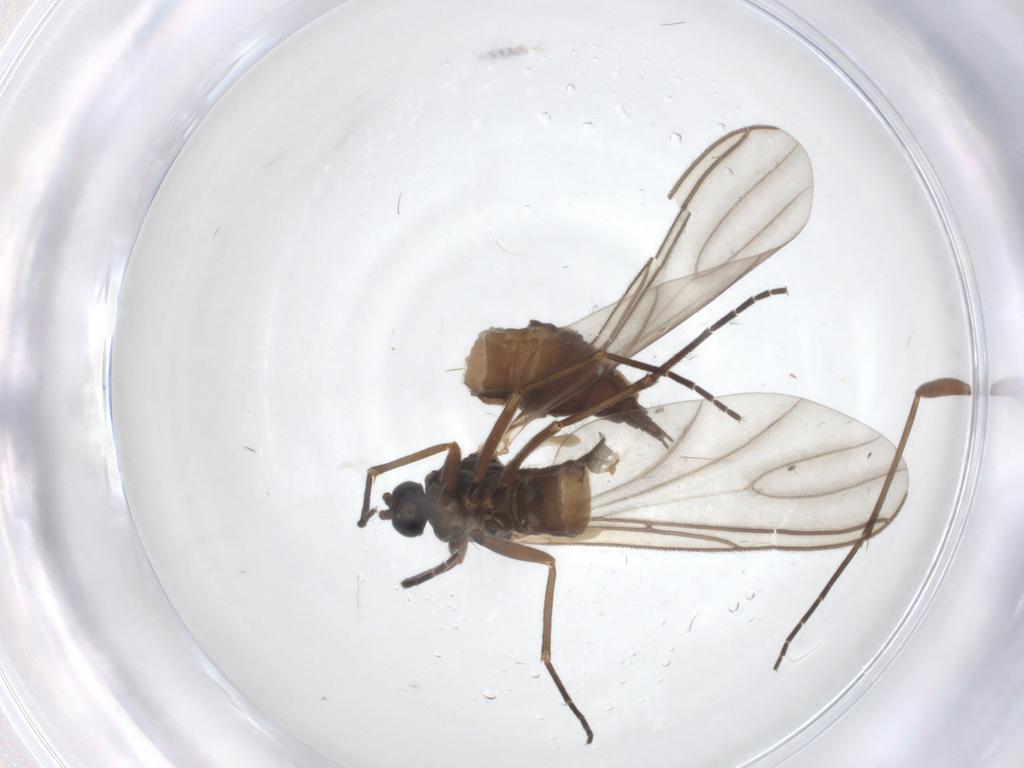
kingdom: Animalia
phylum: Arthropoda
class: Insecta
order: Diptera
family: Sciaridae
